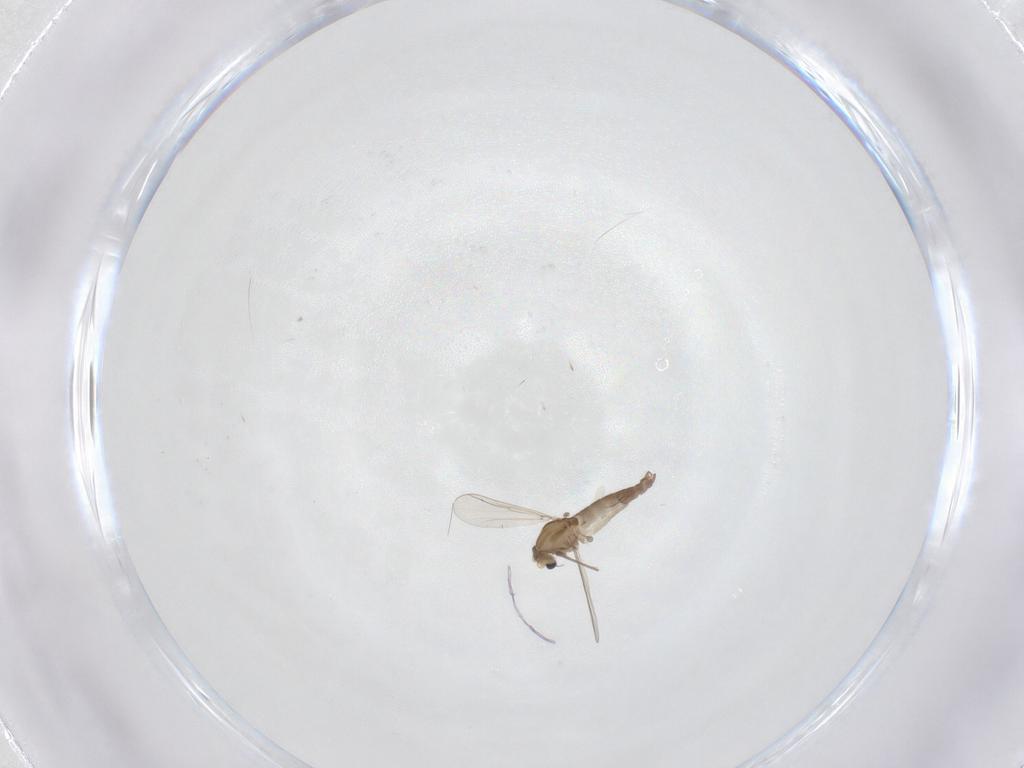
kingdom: Animalia
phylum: Arthropoda
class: Insecta
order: Diptera
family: Chironomidae
